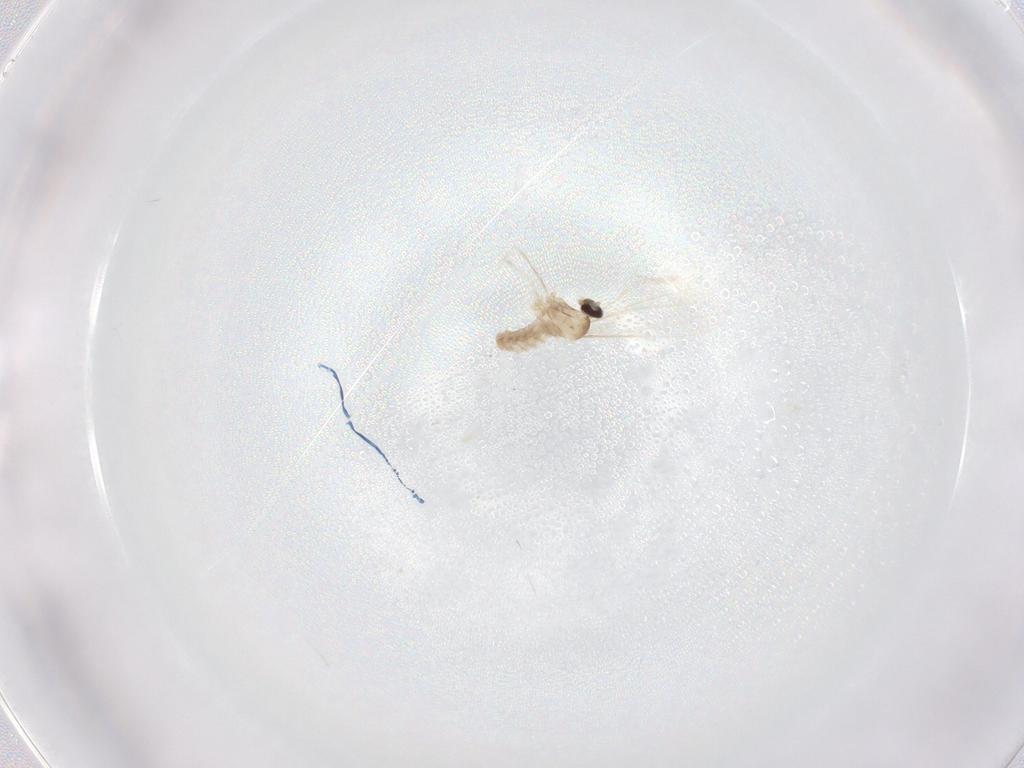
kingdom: Animalia
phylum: Arthropoda
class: Insecta
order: Diptera
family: Cecidomyiidae
